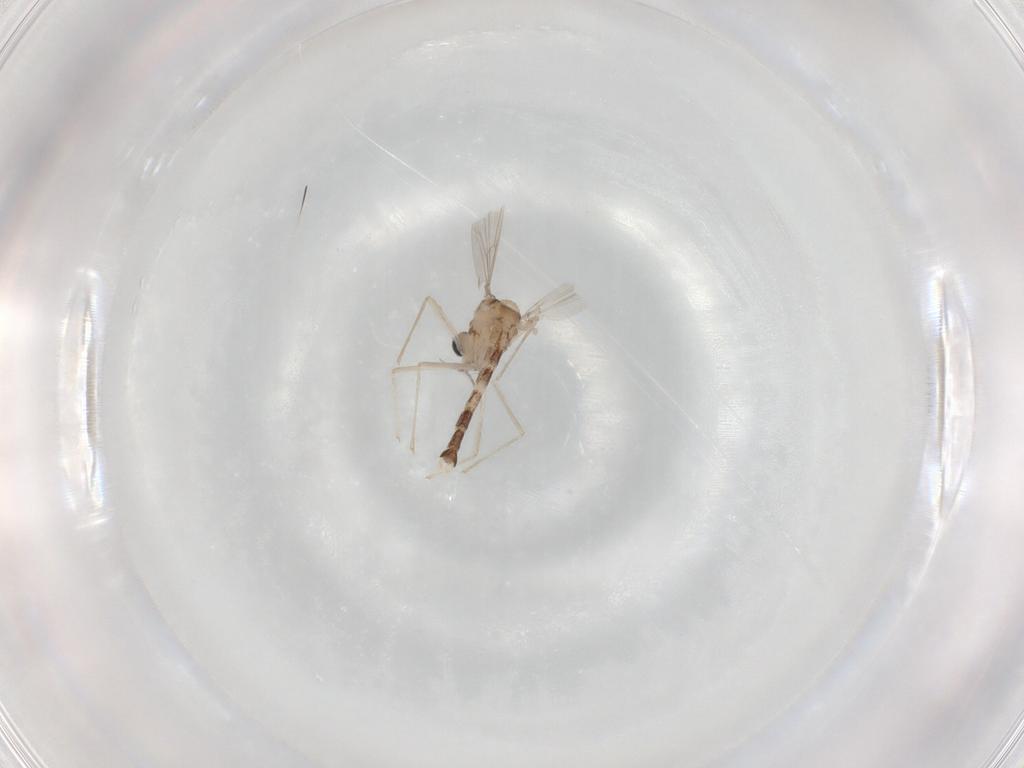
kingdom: Animalia
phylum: Arthropoda
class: Insecta
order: Diptera
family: Chironomidae
